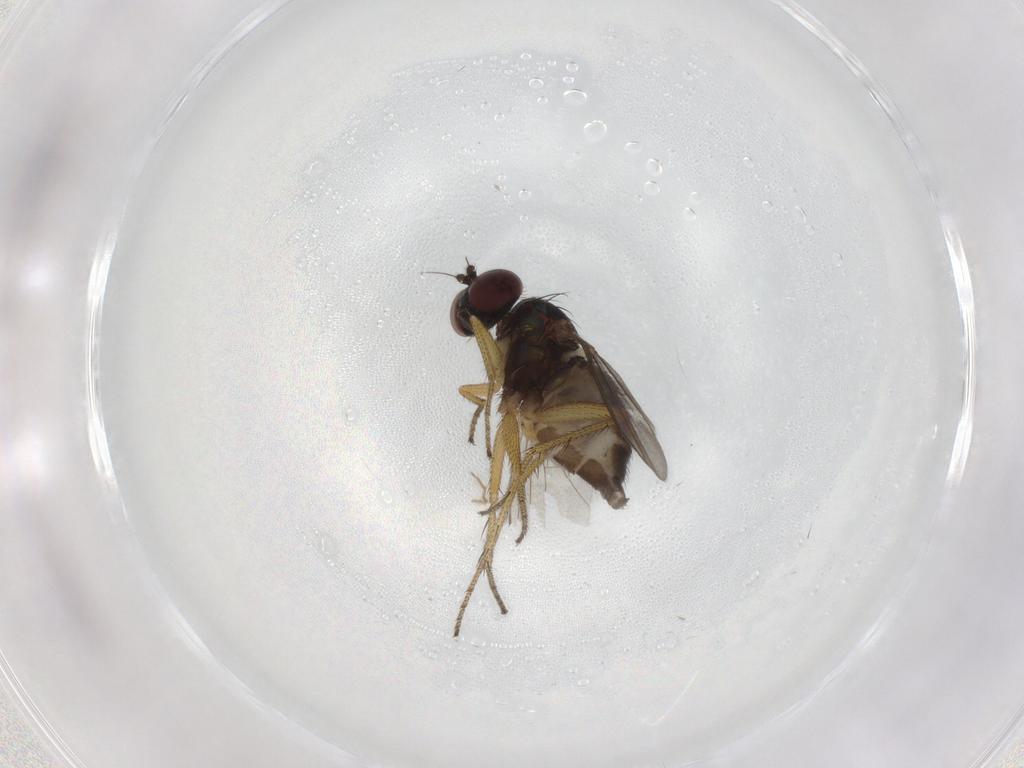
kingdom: Animalia
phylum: Arthropoda
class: Insecta
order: Diptera
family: Dolichopodidae
